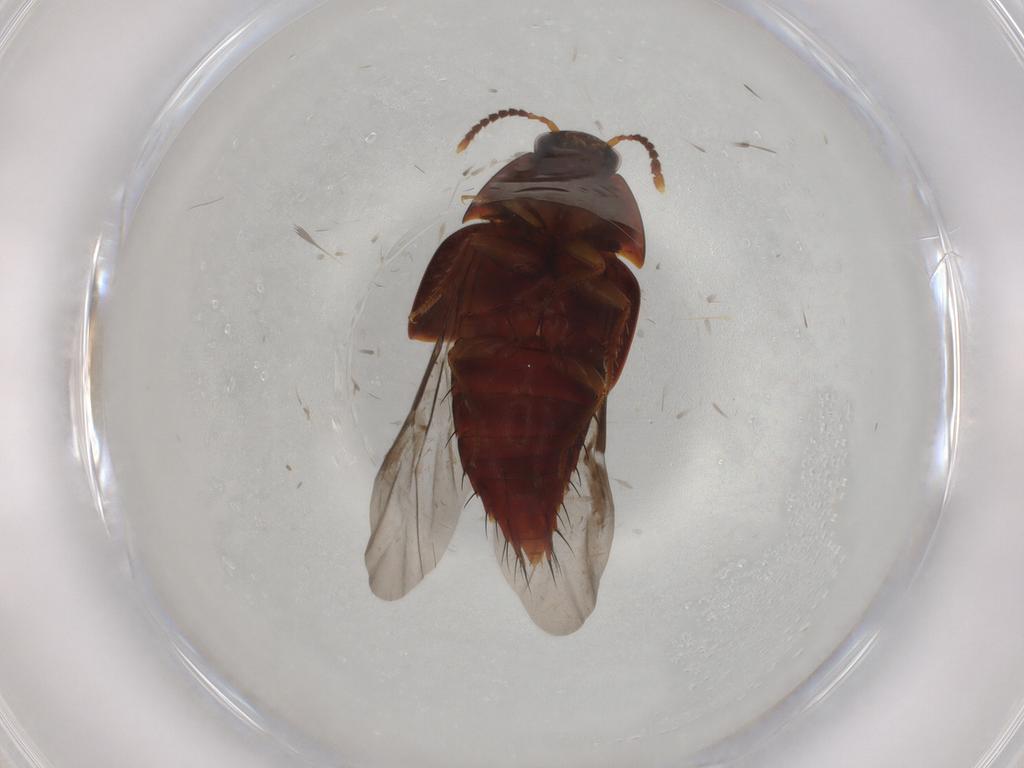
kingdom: Animalia
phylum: Arthropoda
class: Insecta
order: Coleoptera
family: Staphylinidae
